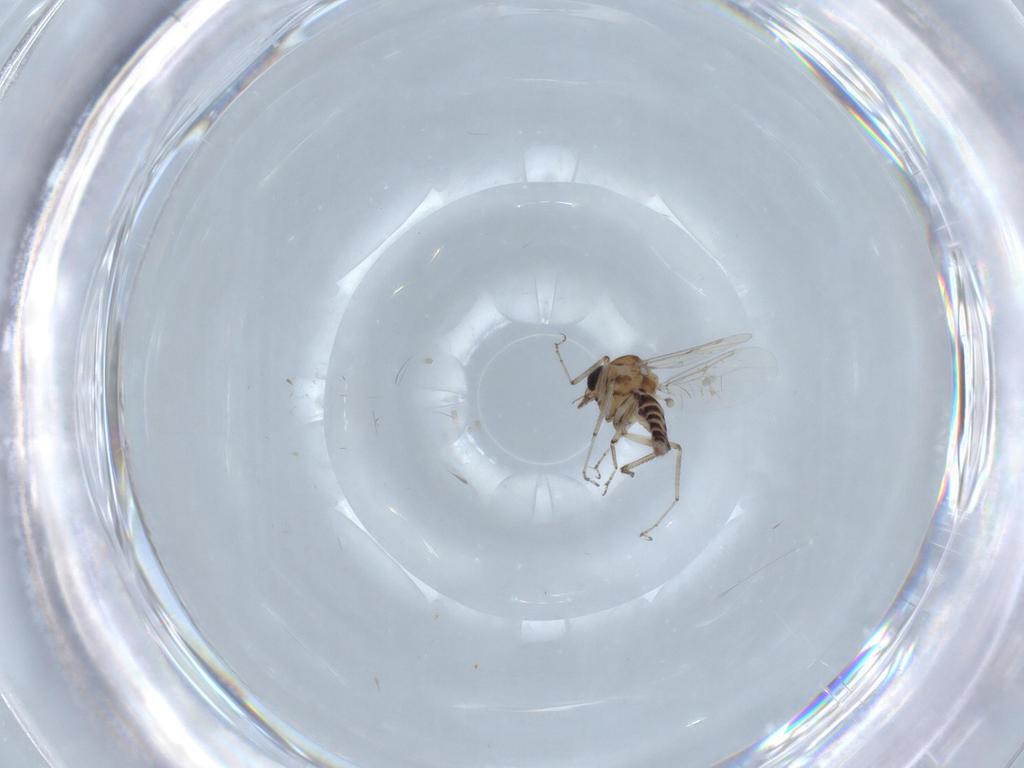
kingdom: Animalia
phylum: Arthropoda
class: Insecta
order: Diptera
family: Ceratopogonidae
